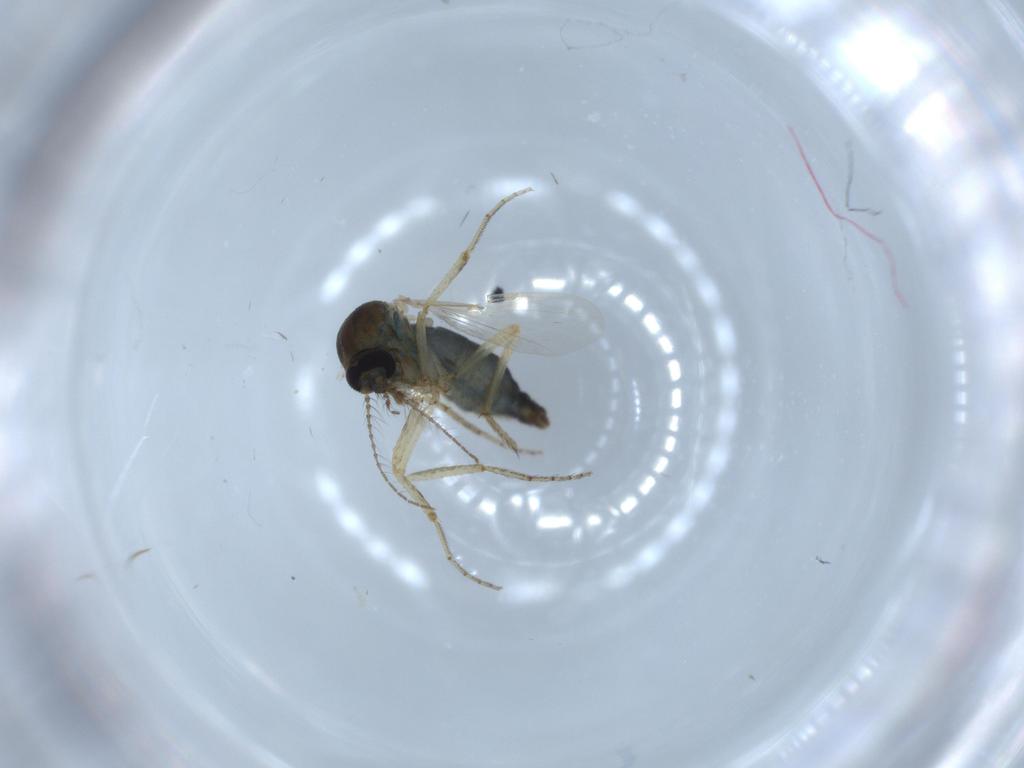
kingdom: Animalia
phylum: Arthropoda
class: Insecta
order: Diptera
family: Ceratopogonidae
